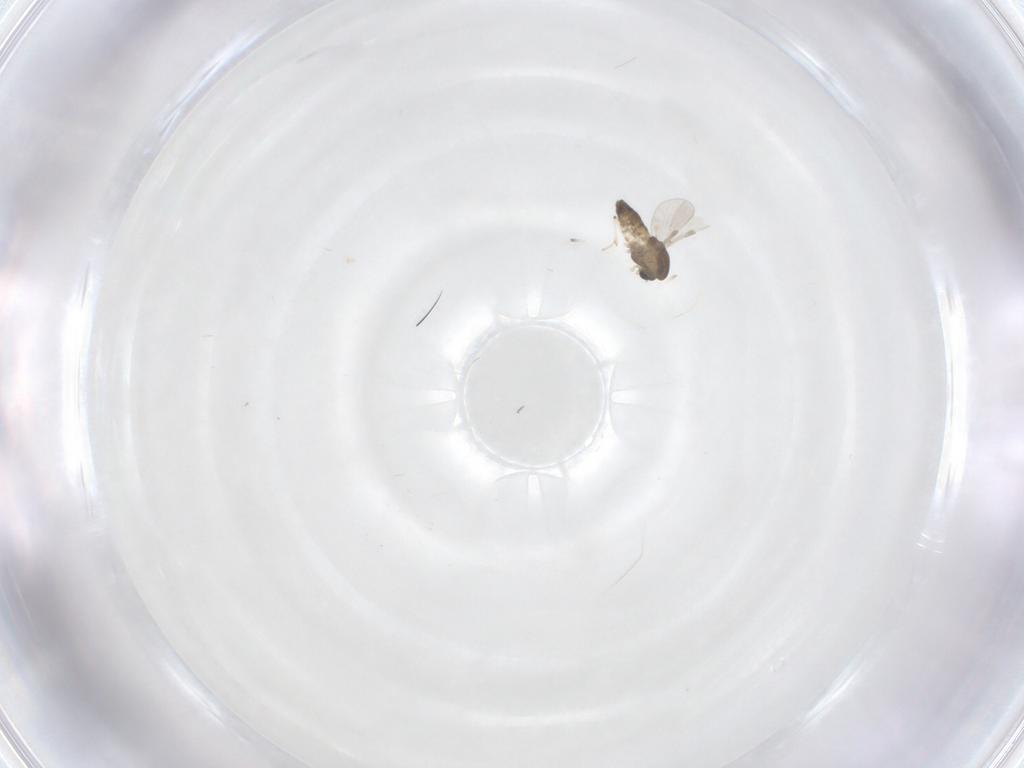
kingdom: Animalia
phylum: Arthropoda
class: Insecta
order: Diptera
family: Chironomidae
